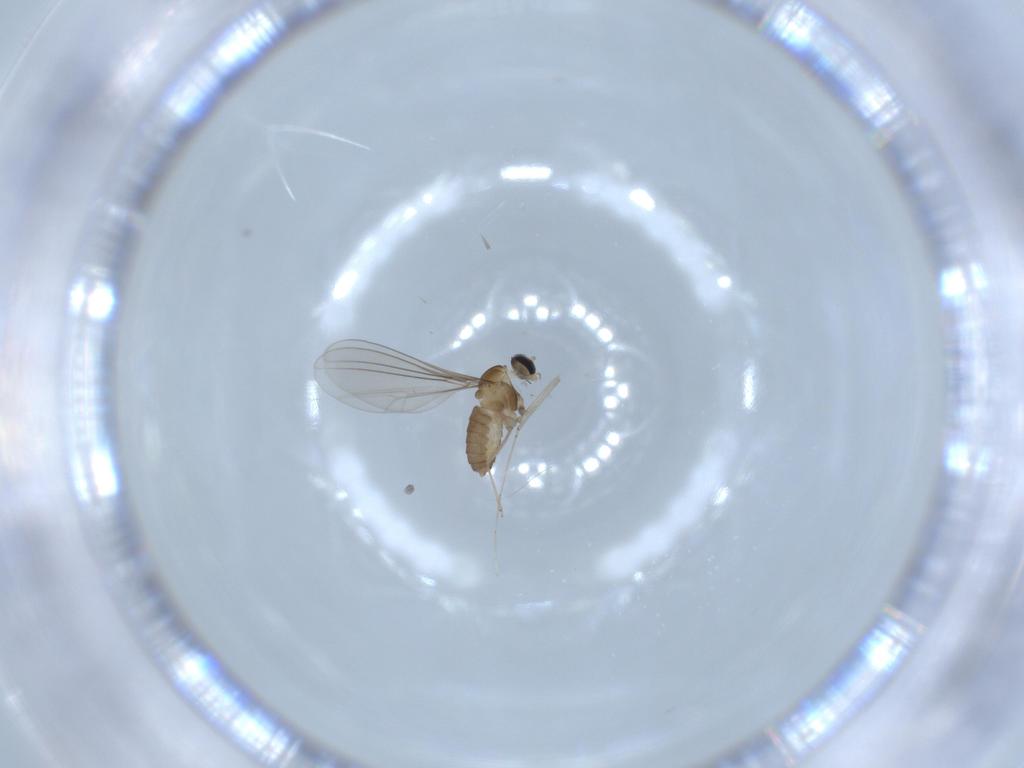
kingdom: Animalia
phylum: Arthropoda
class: Insecta
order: Diptera
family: Cecidomyiidae
